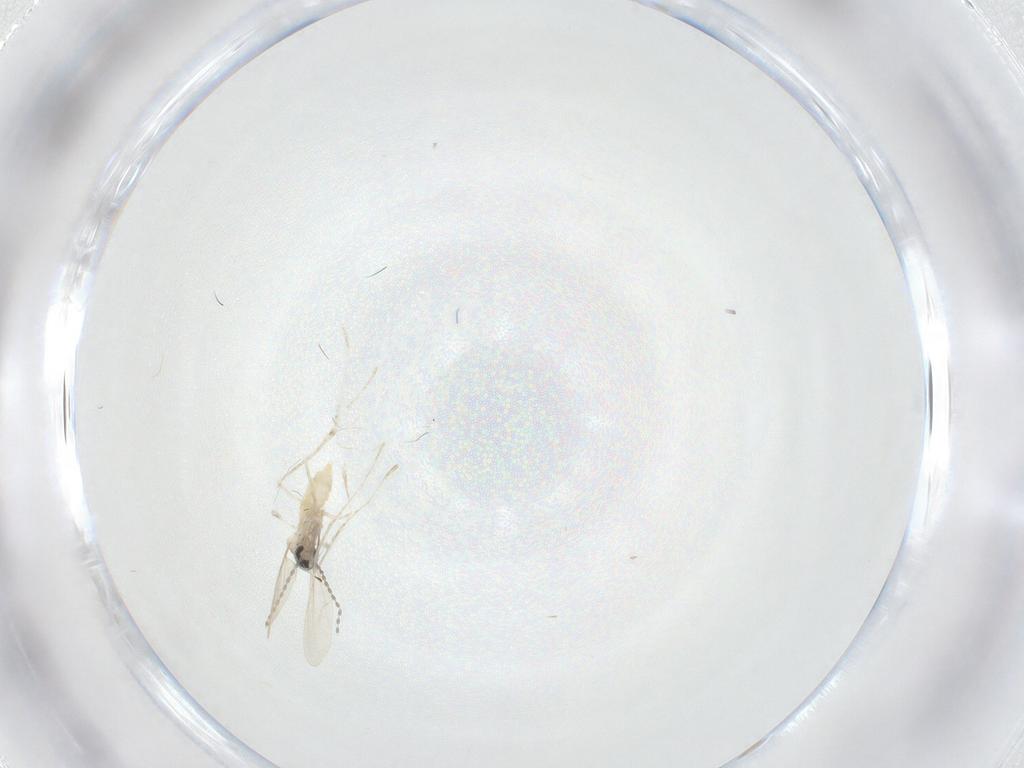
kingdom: Animalia
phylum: Arthropoda
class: Insecta
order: Diptera
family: Cecidomyiidae
